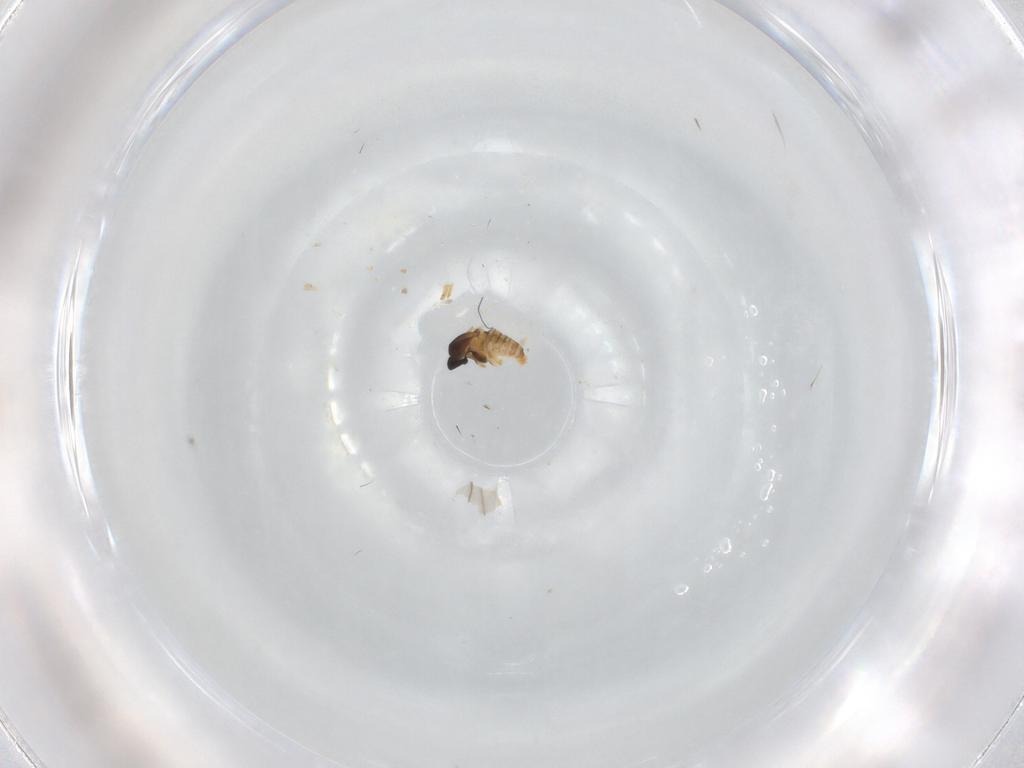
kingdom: Animalia
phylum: Arthropoda
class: Insecta
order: Diptera
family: Cecidomyiidae
